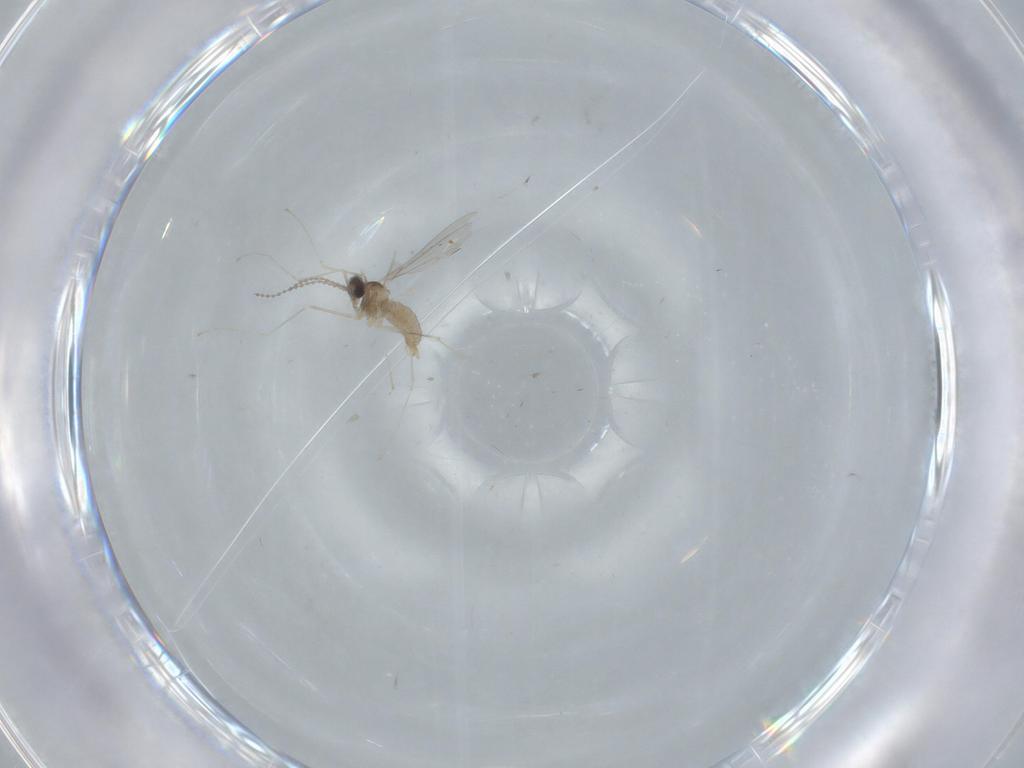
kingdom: Animalia
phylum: Arthropoda
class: Insecta
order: Diptera
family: Cecidomyiidae
